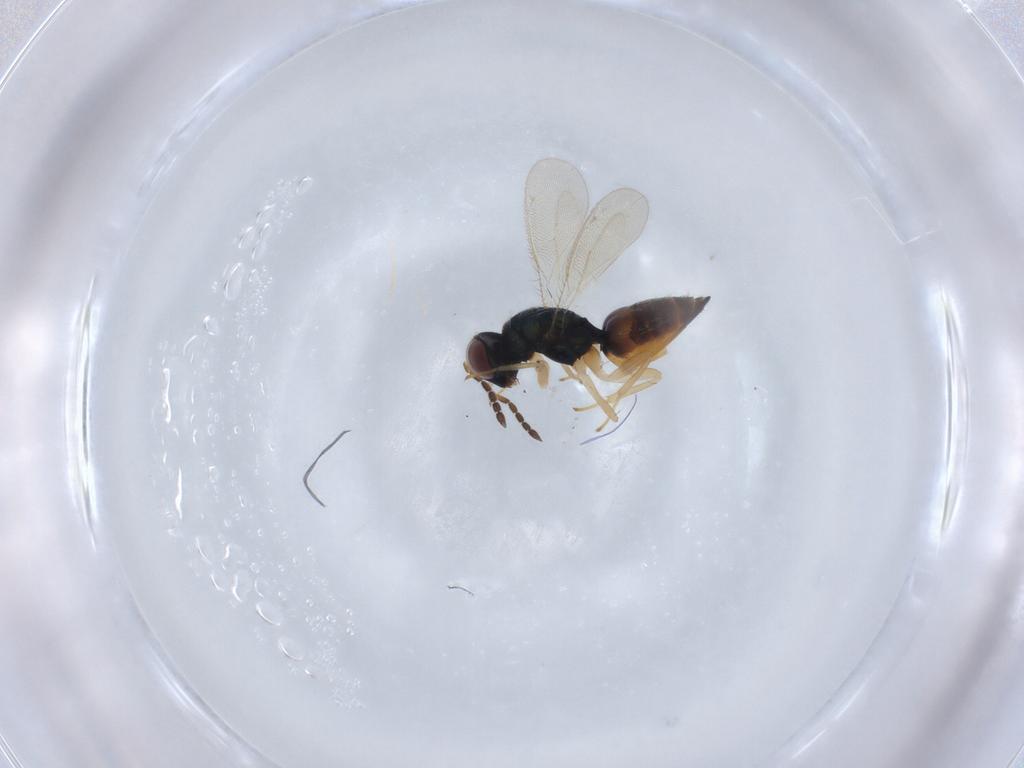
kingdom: Animalia
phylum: Arthropoda
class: Insecta
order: Hymenoptera
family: Eulophidae
